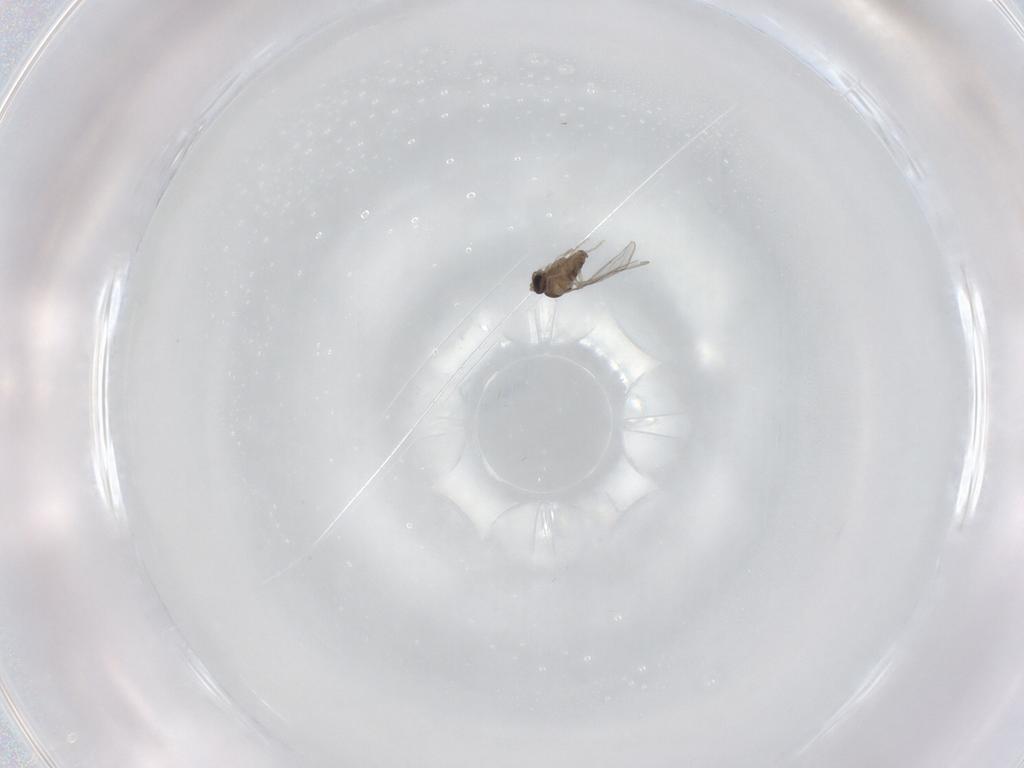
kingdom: Animalia
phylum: Arthropoda
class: Insecta
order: Diptera
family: Cecidomyiidae
